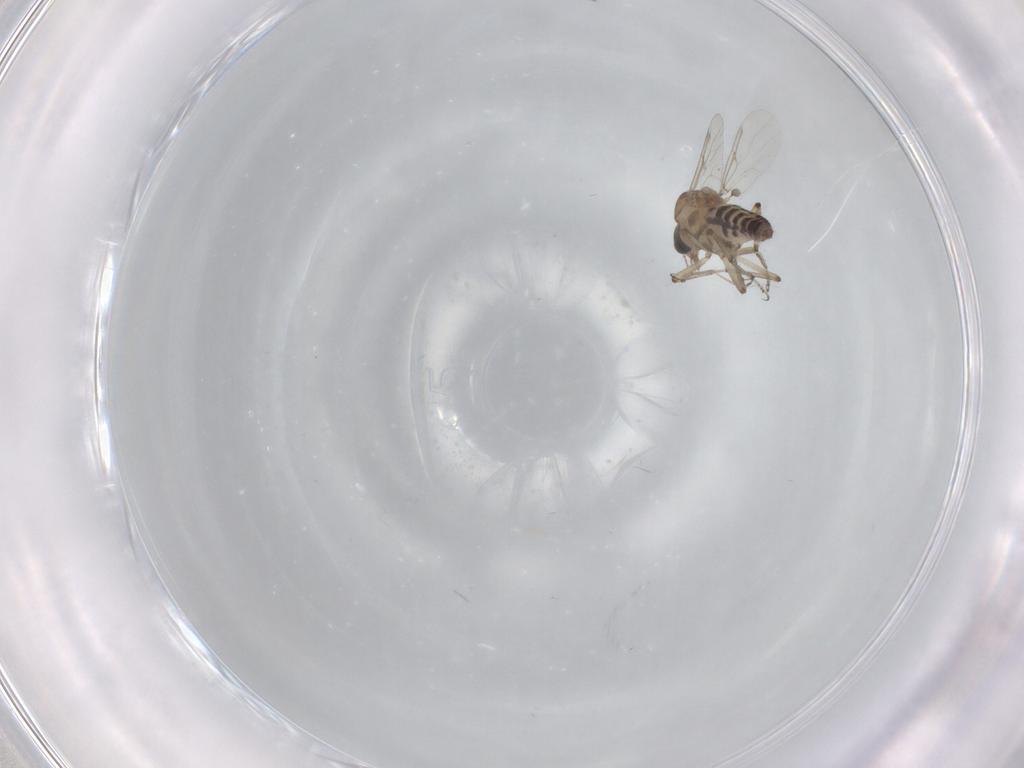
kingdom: Animalia
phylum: Arthropoda
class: Insecta
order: Diptera
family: Ceratopogonidae
